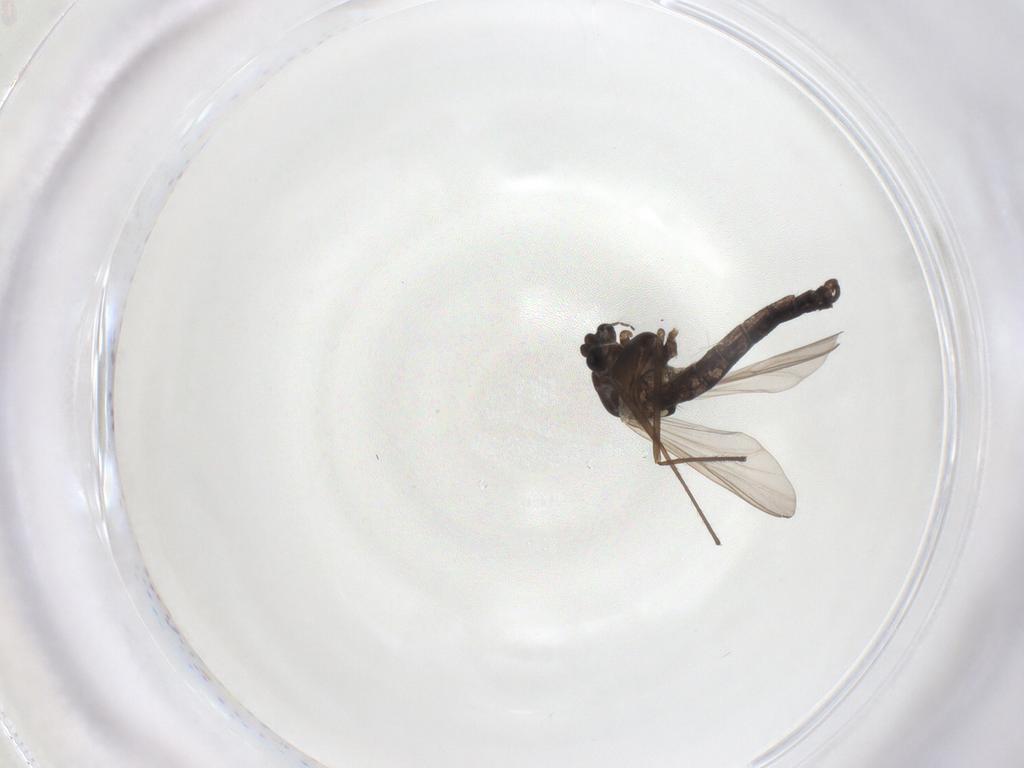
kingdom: Animalia
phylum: Arthropoda
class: Insecta
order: Diptera
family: Chironomidae
